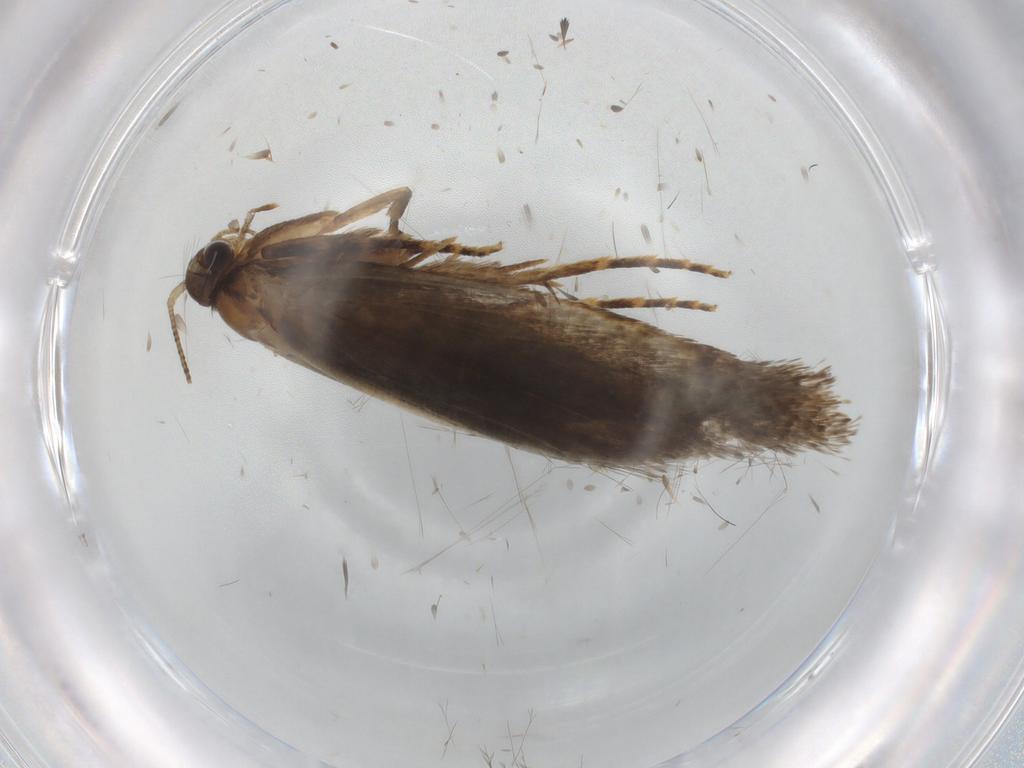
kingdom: Animalia
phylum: Arthropoda
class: Insecta
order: Lepidoptera
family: Crambidae
